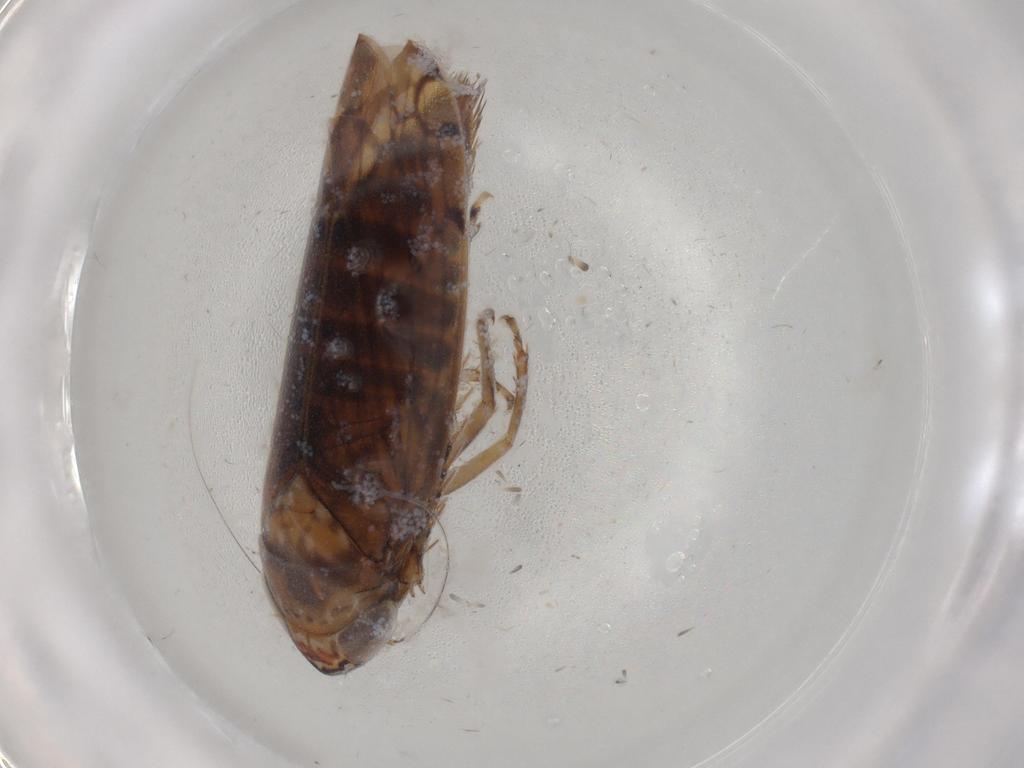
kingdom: Animalia
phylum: Arthropoda
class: Insecta
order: Hemiptera
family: Cicadellidae
